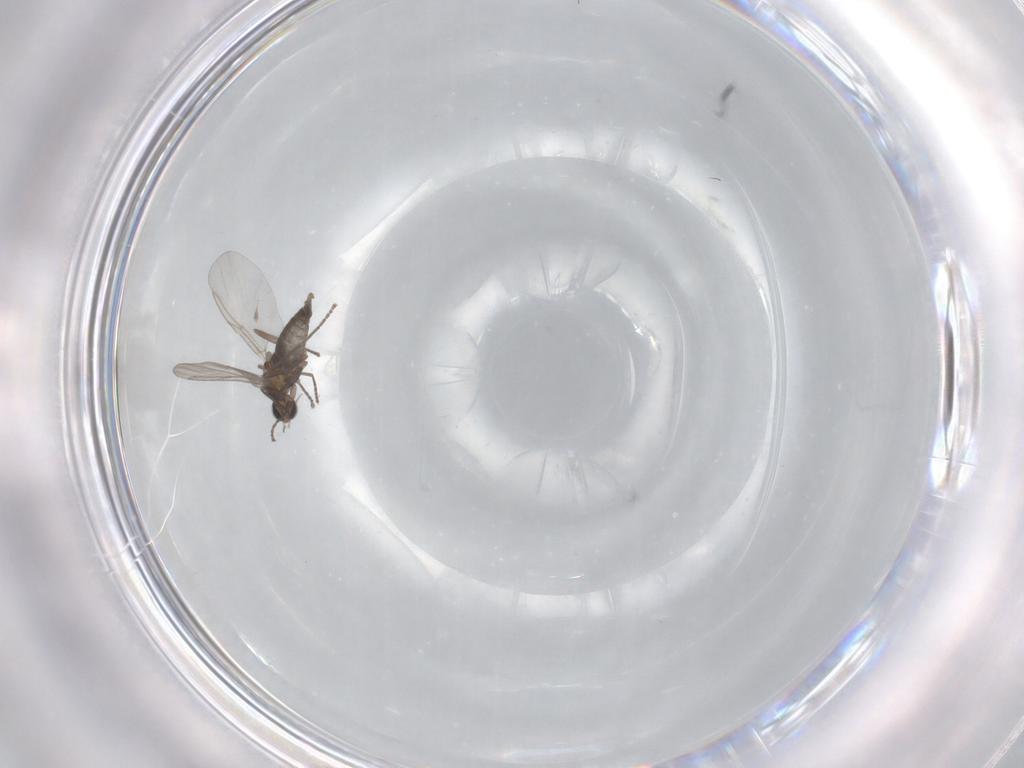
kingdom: Animalia
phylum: Arthropoda
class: Insecta
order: Diptera
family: Cecidomyiidae
